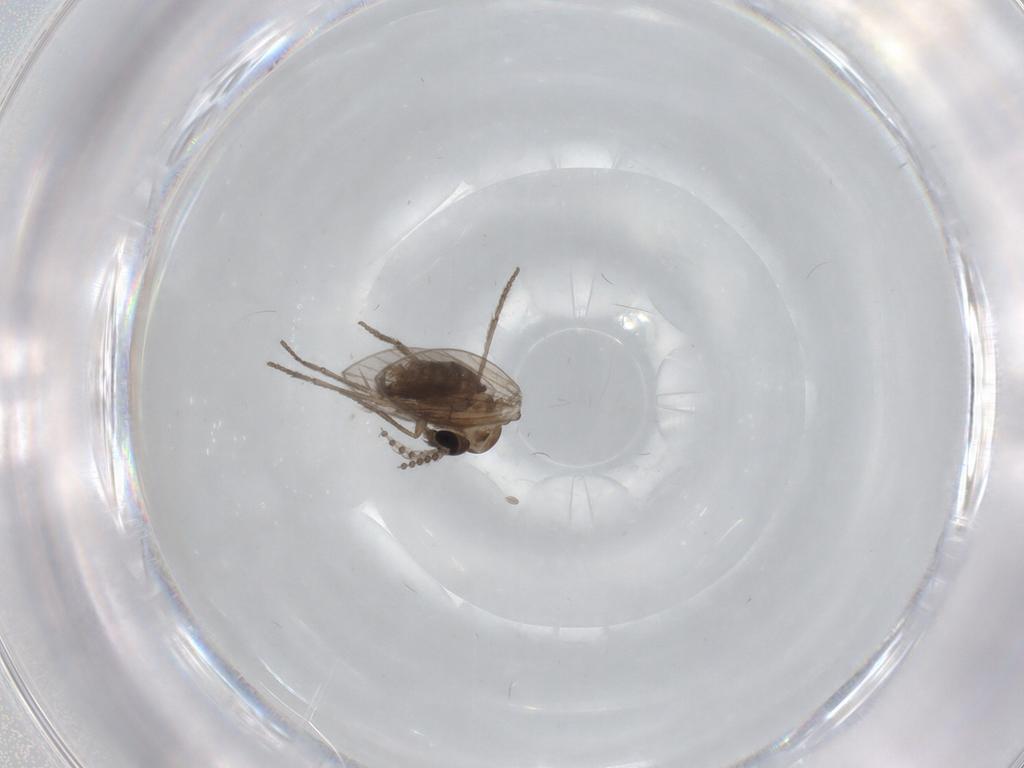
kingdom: Animalia
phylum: Arthropoda
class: Insecta
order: Diptera
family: Psychodidae
